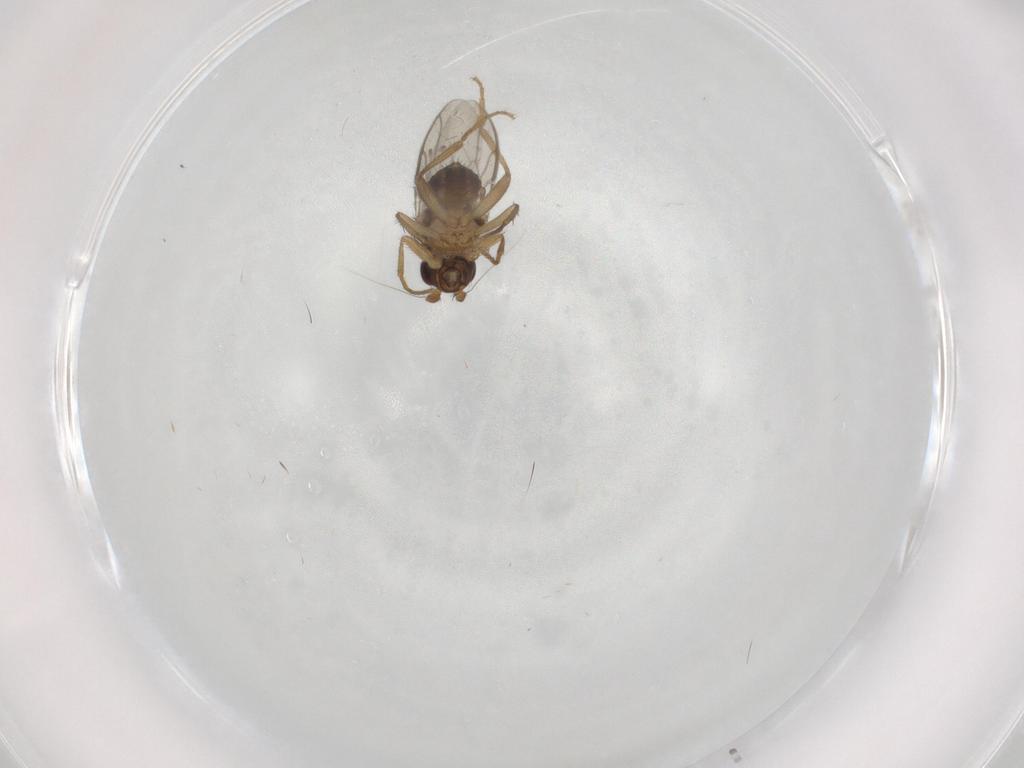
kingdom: Animalia
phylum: Arthropoda
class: Insecta
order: Diptera
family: Sphaeroceridae
